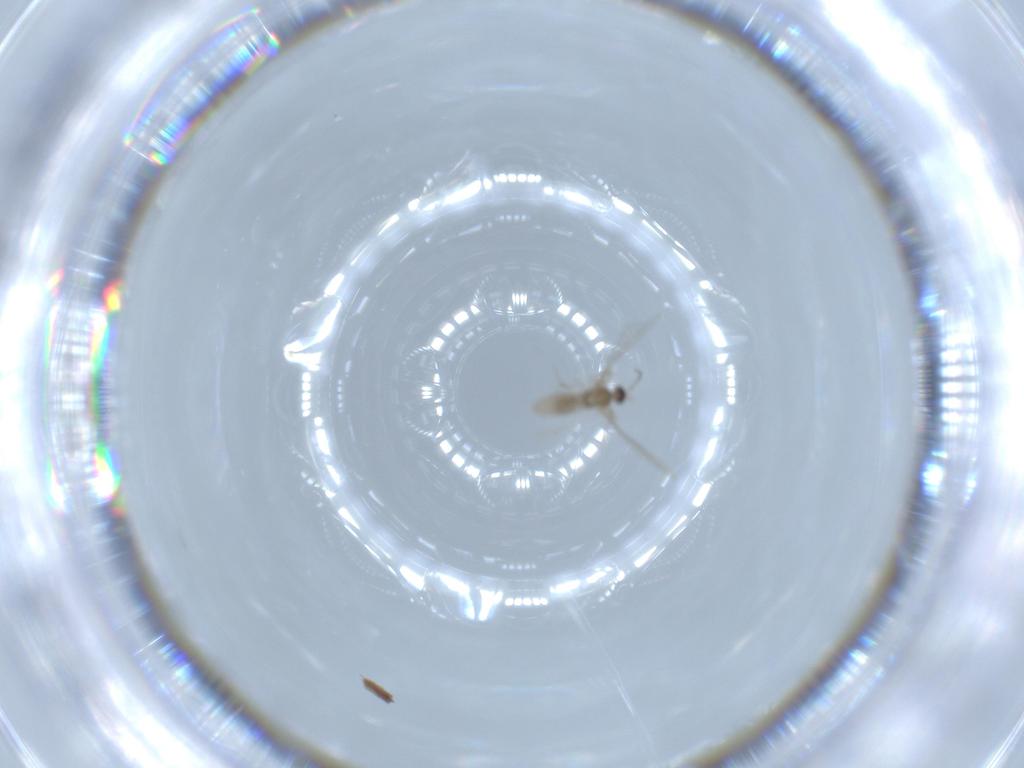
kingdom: Animalia
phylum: Arthropoda
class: Insecta
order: Diptera
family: Cecidomyiidae
